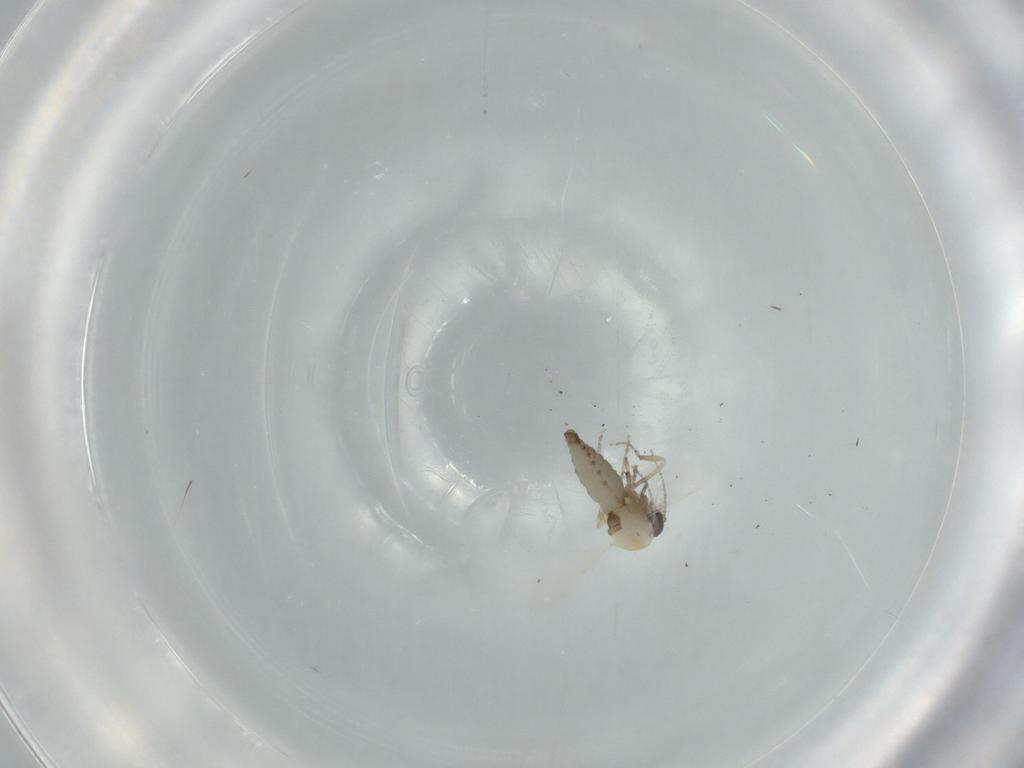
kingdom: Animalia
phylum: Arthropoda
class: Insecta
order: Diptera
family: Ceratopogonidae
